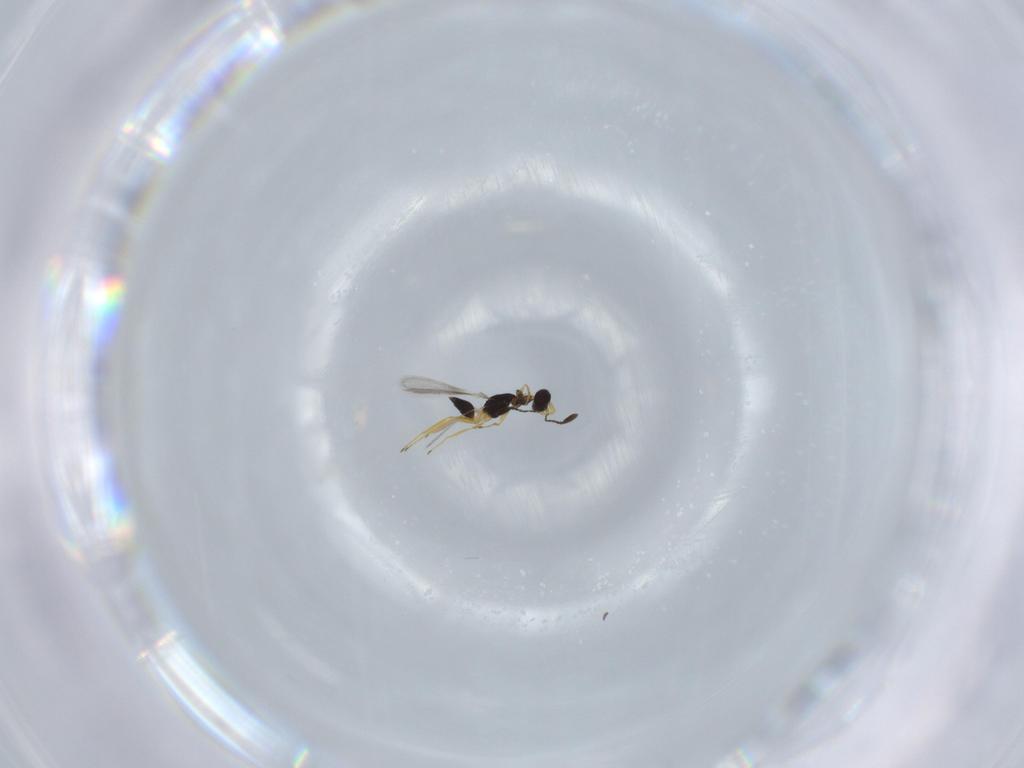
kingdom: Animalia
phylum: Arthropoda
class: Insecta
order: Hymenoptera
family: Mymaridae
